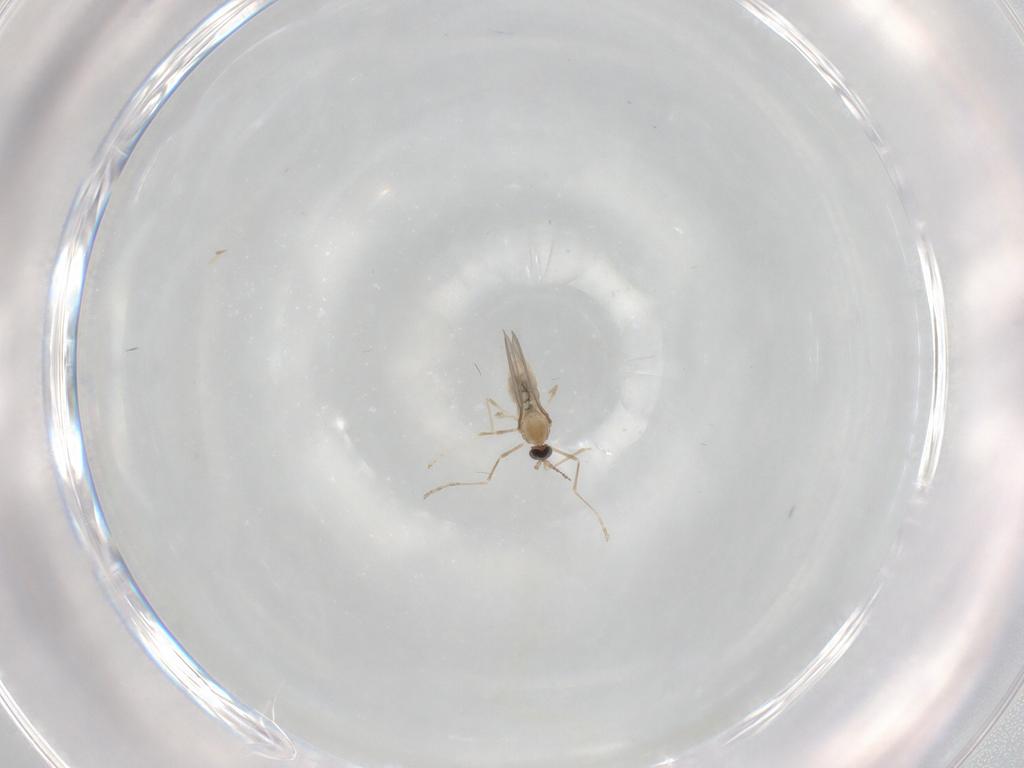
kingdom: Animalia
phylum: Arthropoda
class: Insecta
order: Diptera
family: Cecidomyiidae
